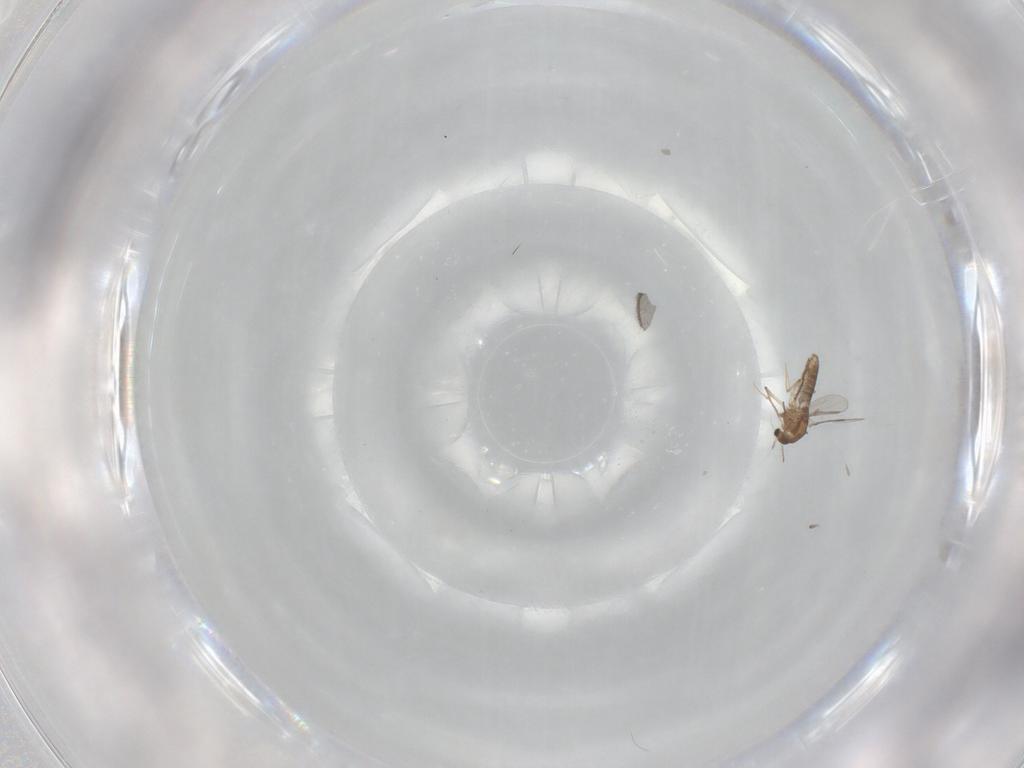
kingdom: Animalia
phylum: Arthropoda
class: Insecta
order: Diptera
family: Chironomidae
